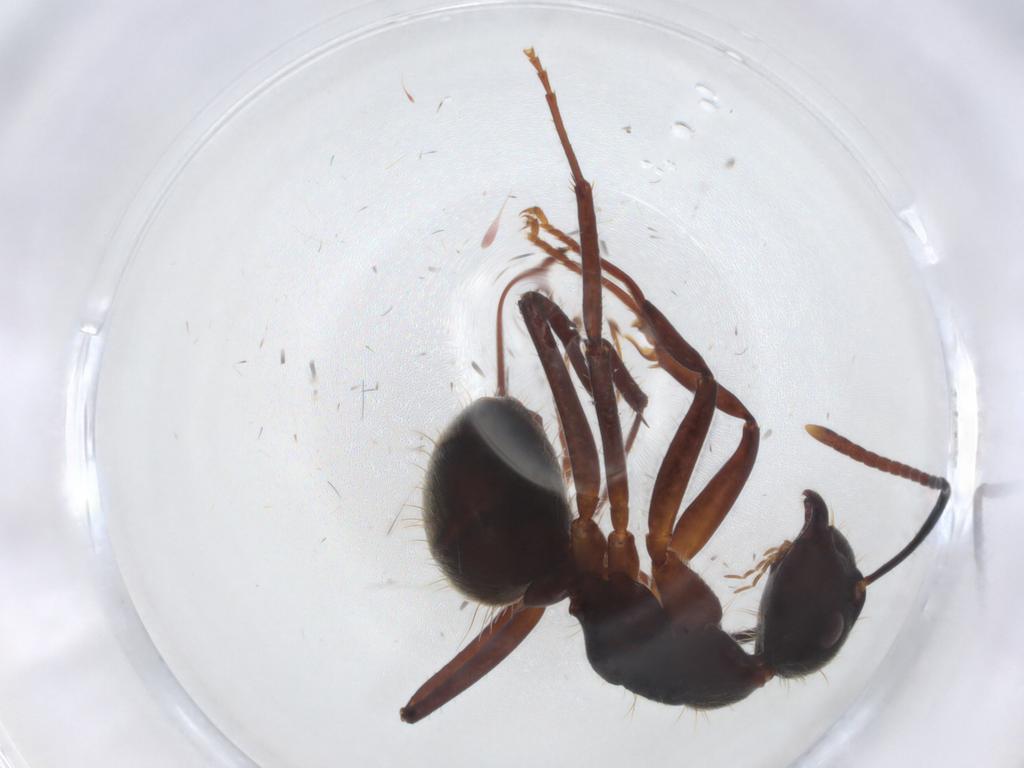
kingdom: Animalia
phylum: Arthropoda
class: Insecta
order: Hymenoptera
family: Formicidae
